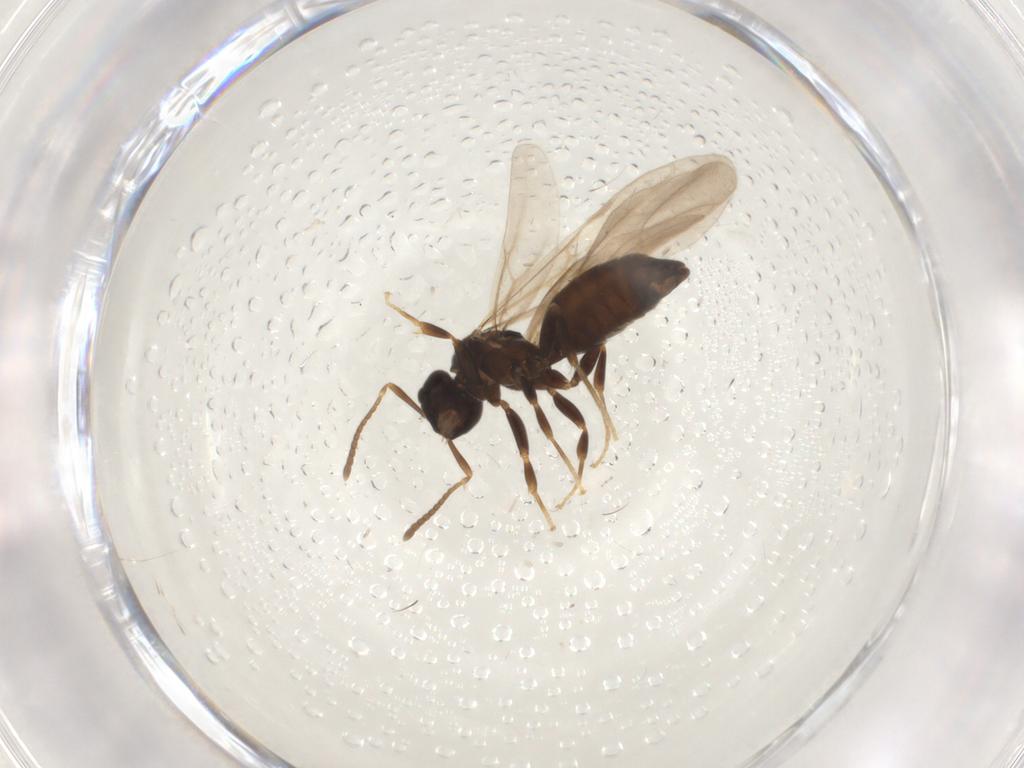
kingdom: Animalia
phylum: Arthropoda
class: Insecta
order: Hymenoptera
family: Formicidae
